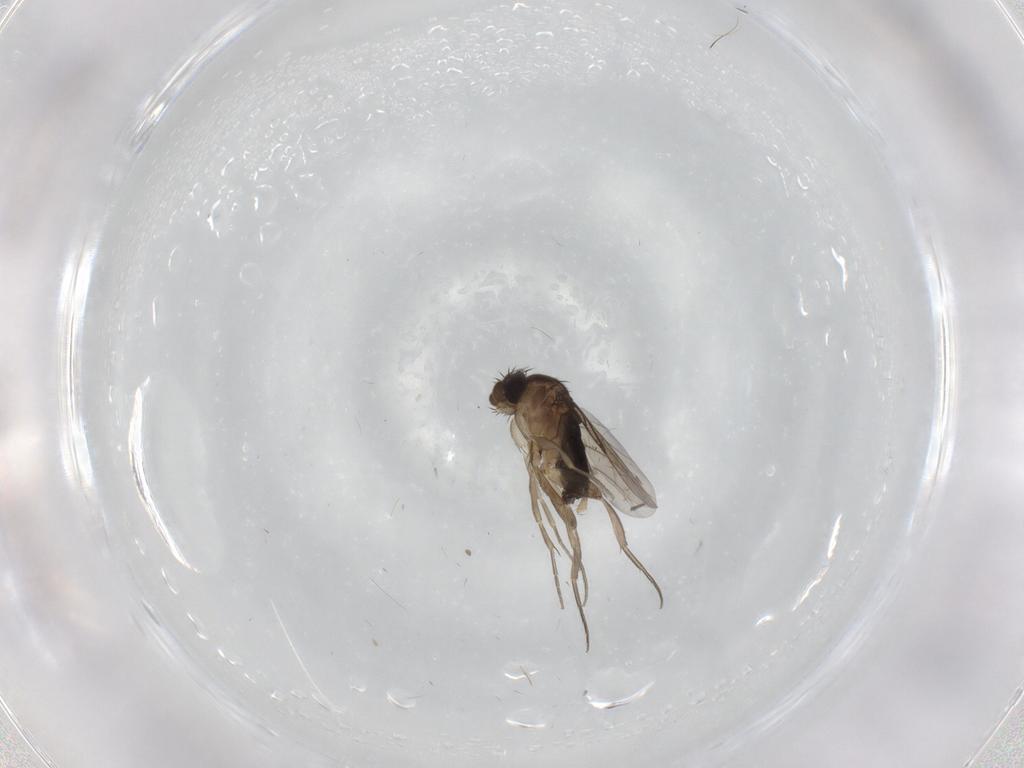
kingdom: Animalia
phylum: Arthropoda
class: Insecta
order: Diptera
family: Phoridae
